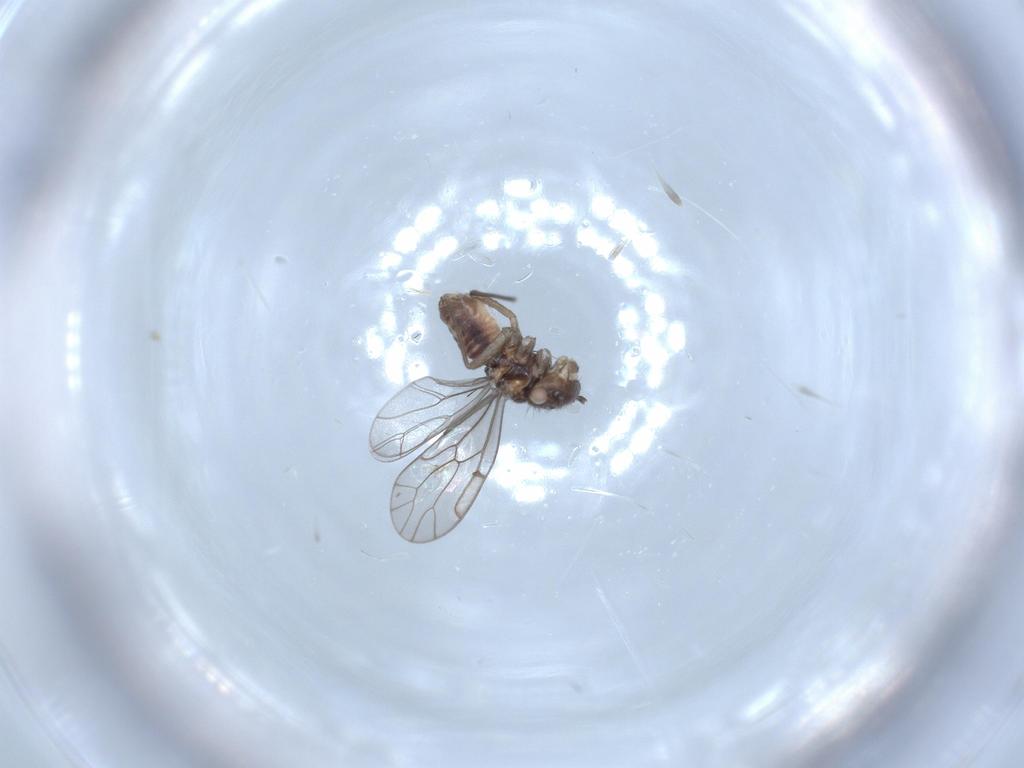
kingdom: Animalia
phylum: Arthropoda
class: Insecta
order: Psocodea
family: Ectopsocidae
